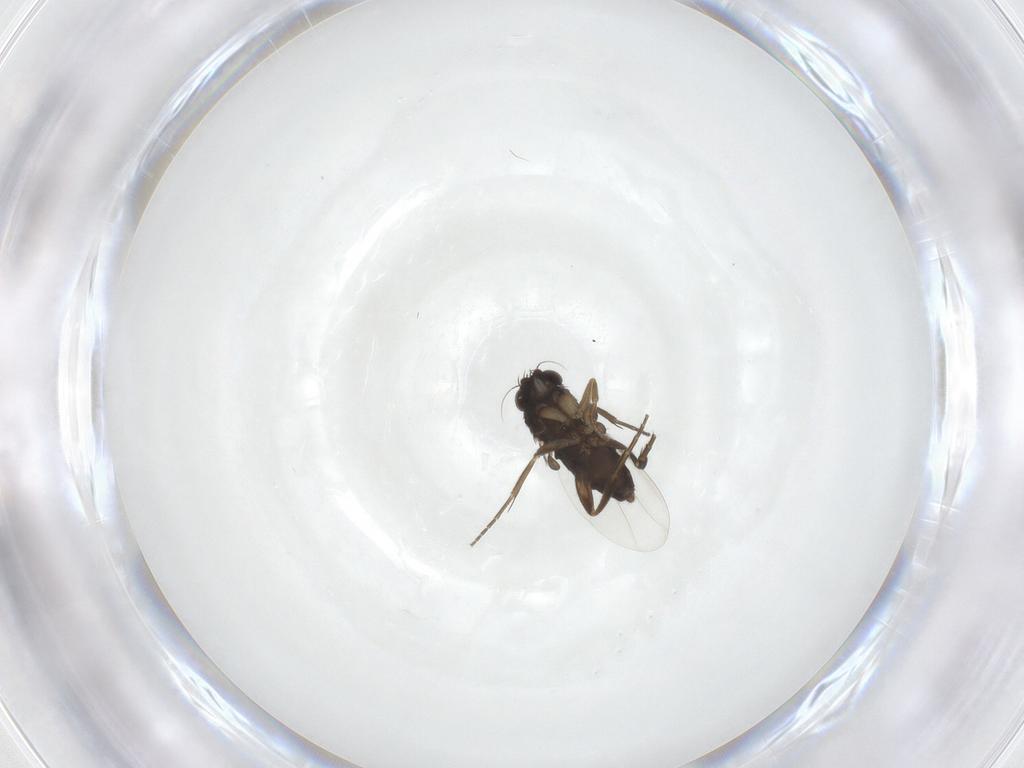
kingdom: Animalia
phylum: Arthropoda
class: Insecta
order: Diptera
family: Phoridae
